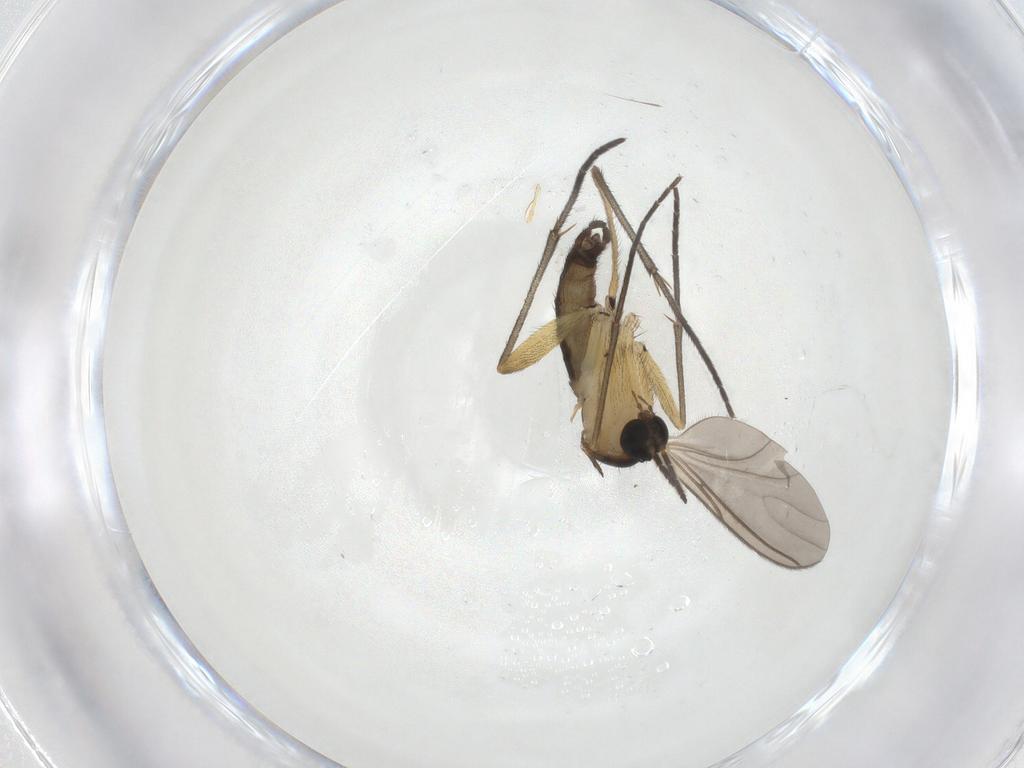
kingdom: Animalia
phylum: Arthropoda
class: Insecta
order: Diptera
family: Sciaridae
